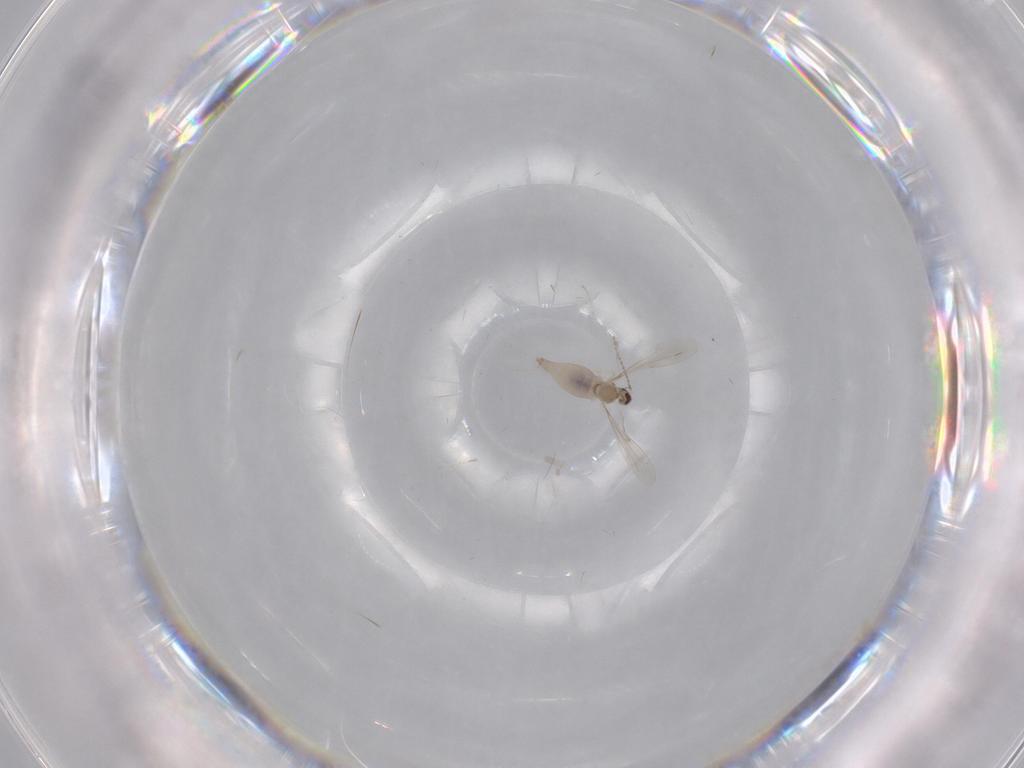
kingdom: Animalia
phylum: Arthropoda
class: Insecta
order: Diptera
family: Cecidomyiidae
